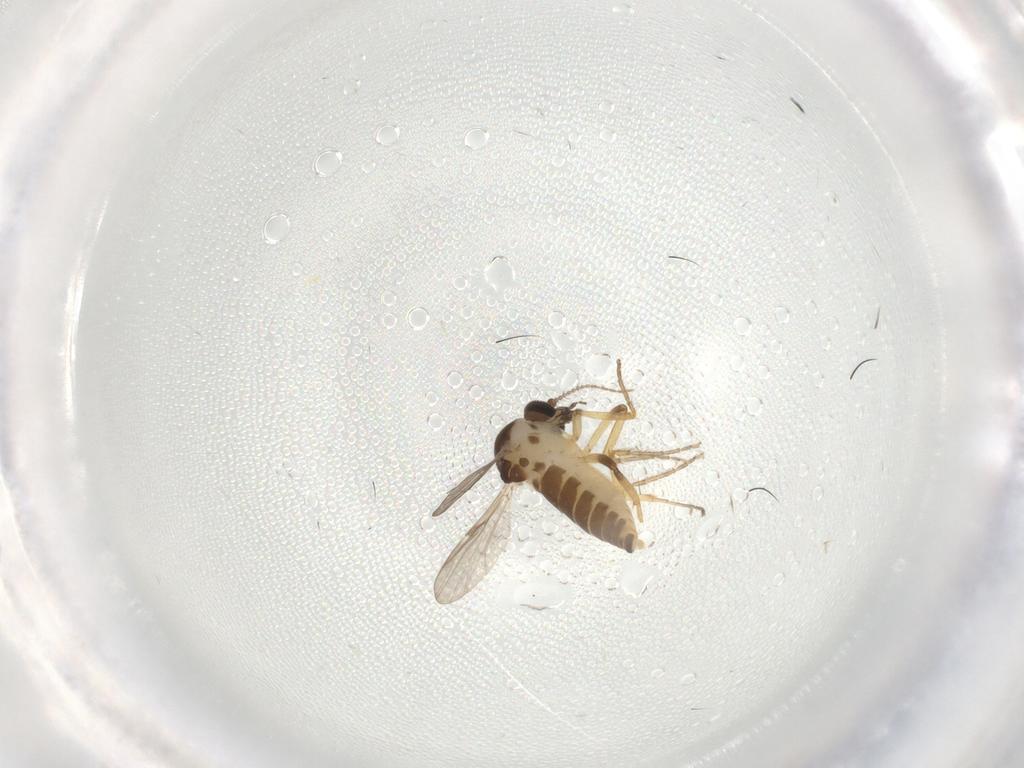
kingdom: Animalia
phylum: Arthropoda
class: Insecta
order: Diptera
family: Ceratopogonidae
